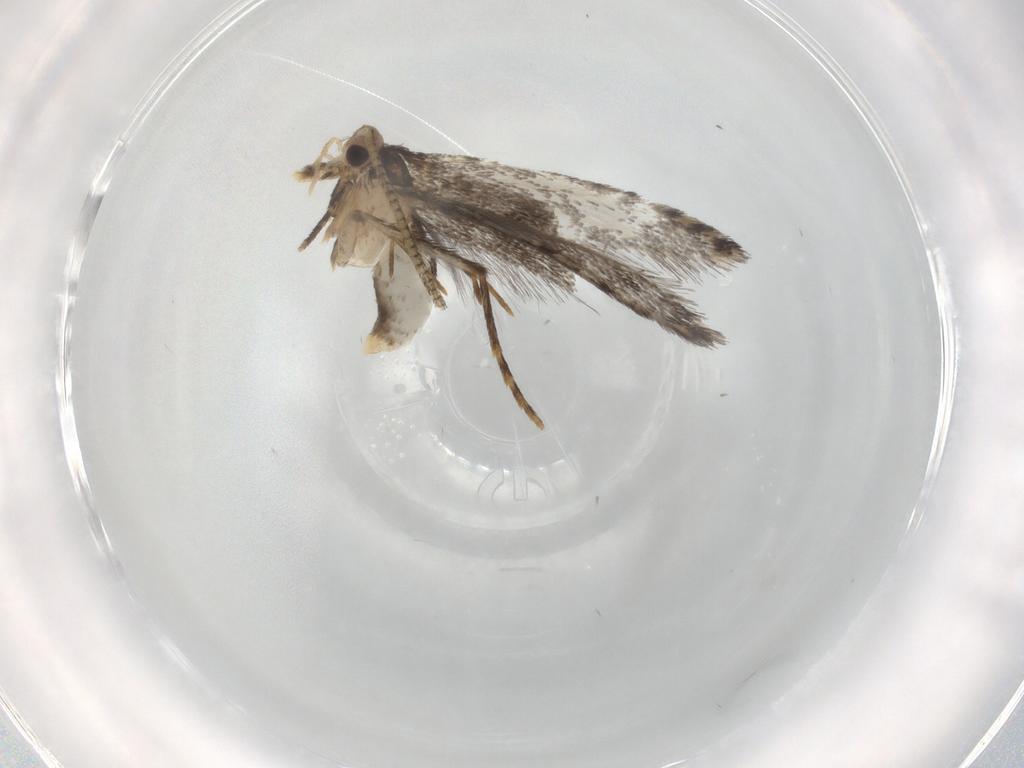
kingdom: Animalia
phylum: Arthropoda
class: Insecta
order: Lepidoptera
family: Tineidae
